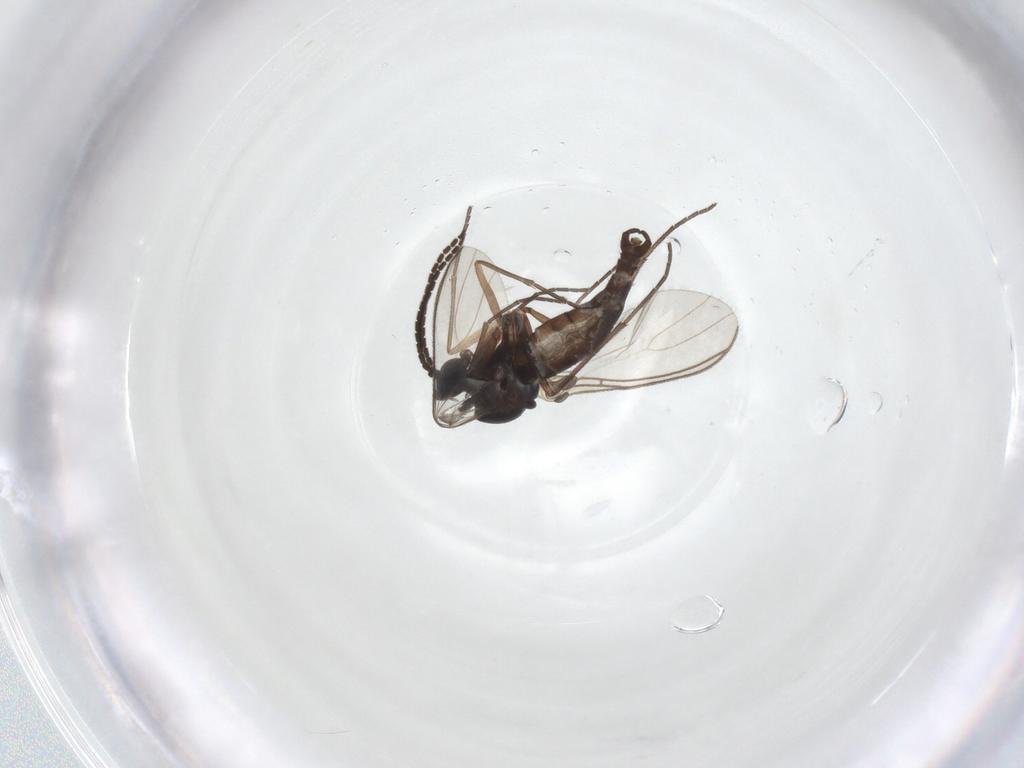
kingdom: Animalia
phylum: Arthropoda
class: Insecta
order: Diptera
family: Sciaridae
